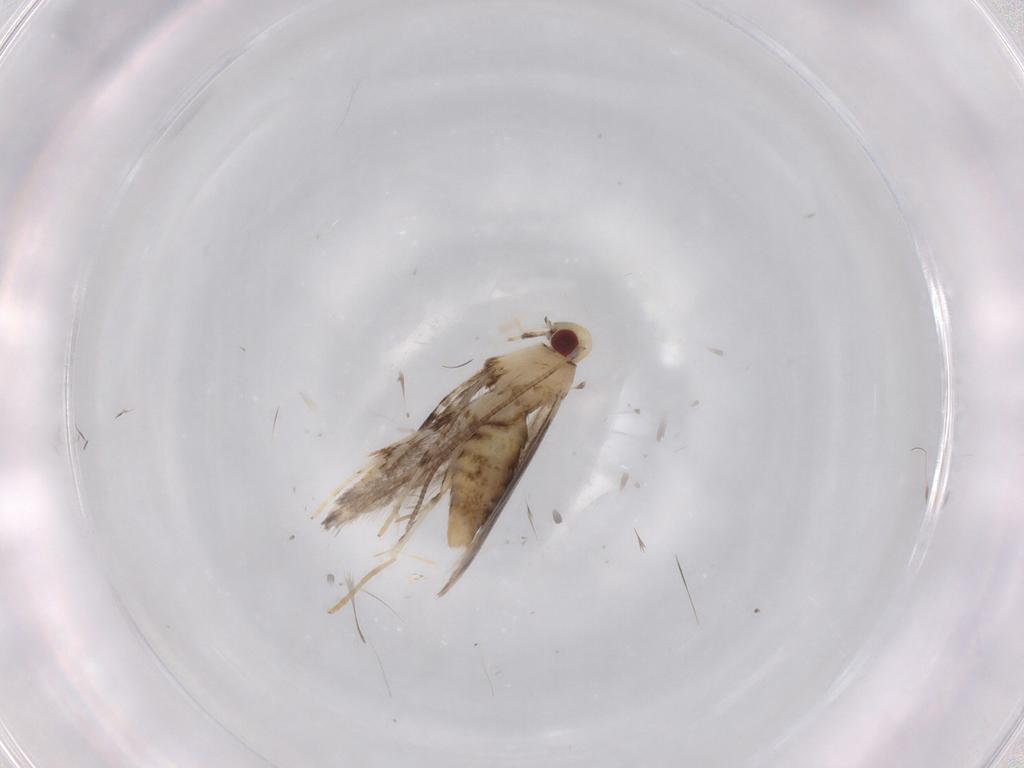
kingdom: Animalia
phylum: Arthropoda
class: Insecta
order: Lepidoptera
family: Gracillariidae
